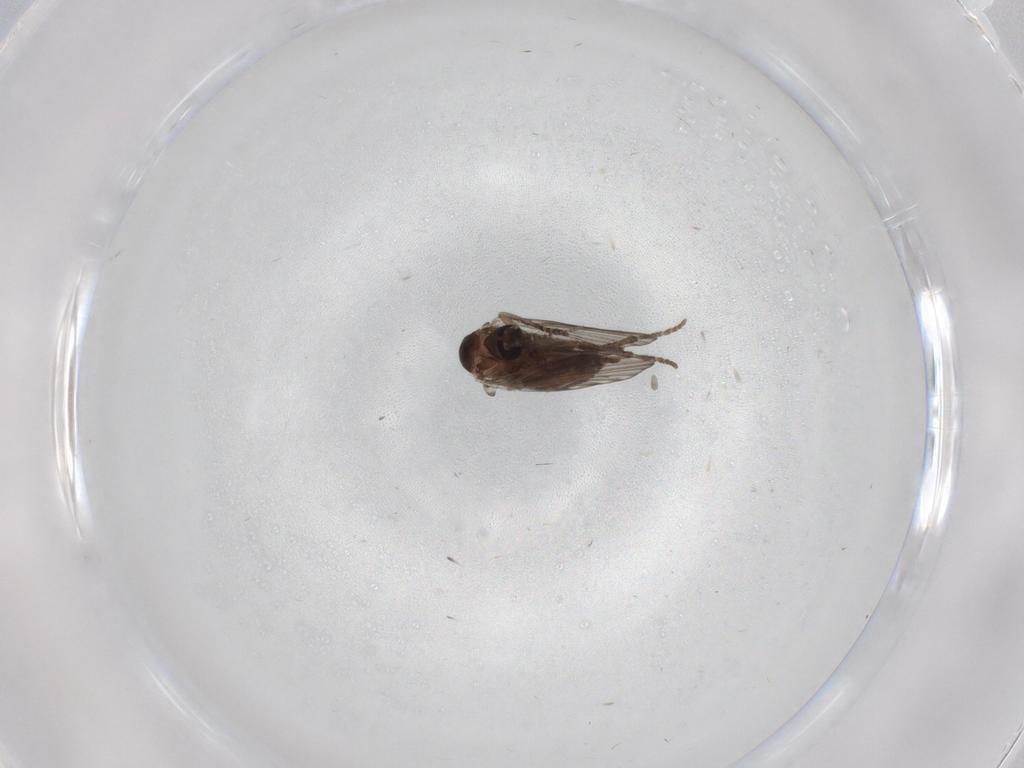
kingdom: Animalia
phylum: Arthropoda
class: Insecta
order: Diptera
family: Psychodidae
